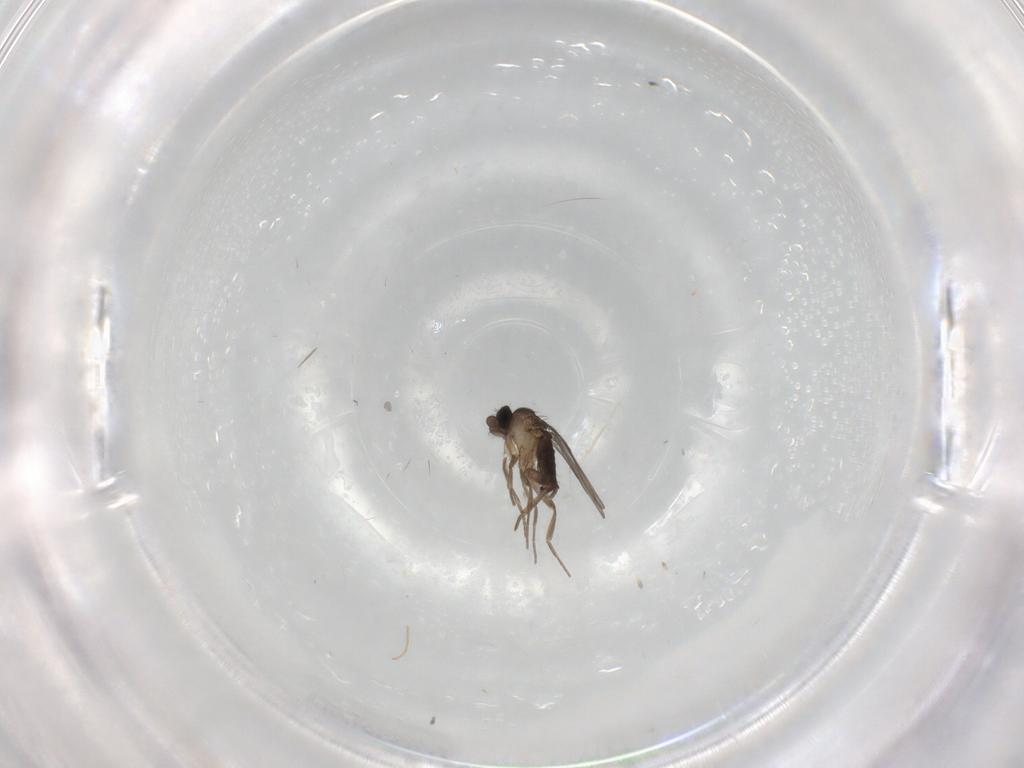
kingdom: Animalia
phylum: Arthropoda
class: Insecta
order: Diptera
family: Phoridae
